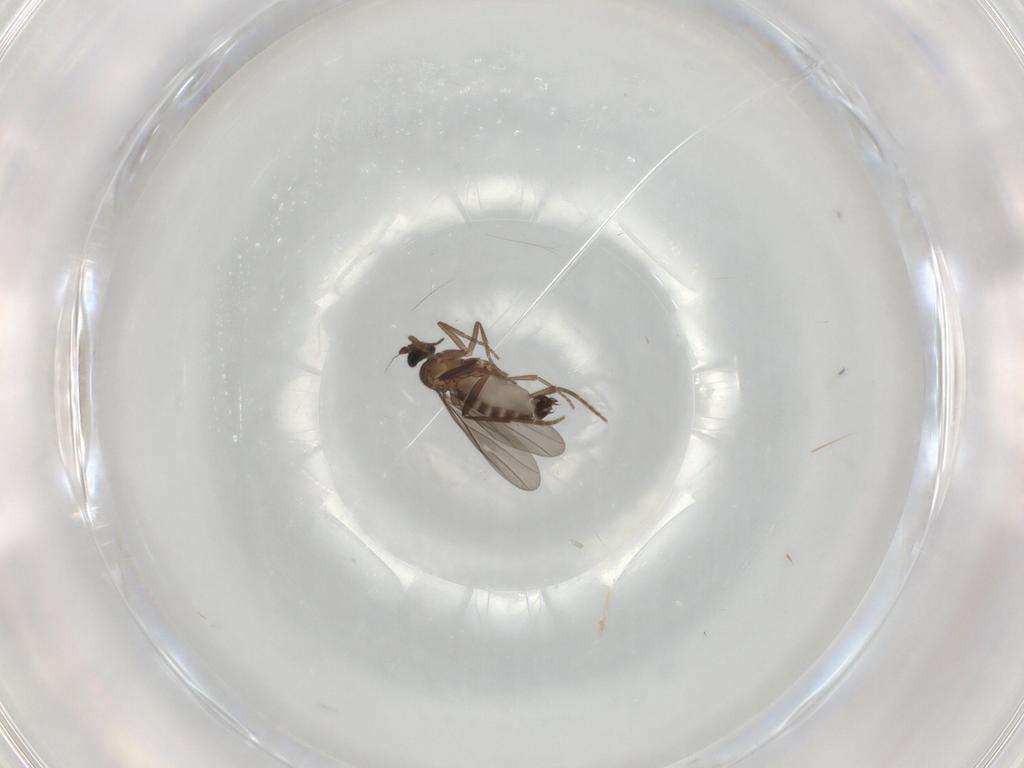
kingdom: Animalia
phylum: Arthropoda
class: Insecta
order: Diptera
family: Phoridae
